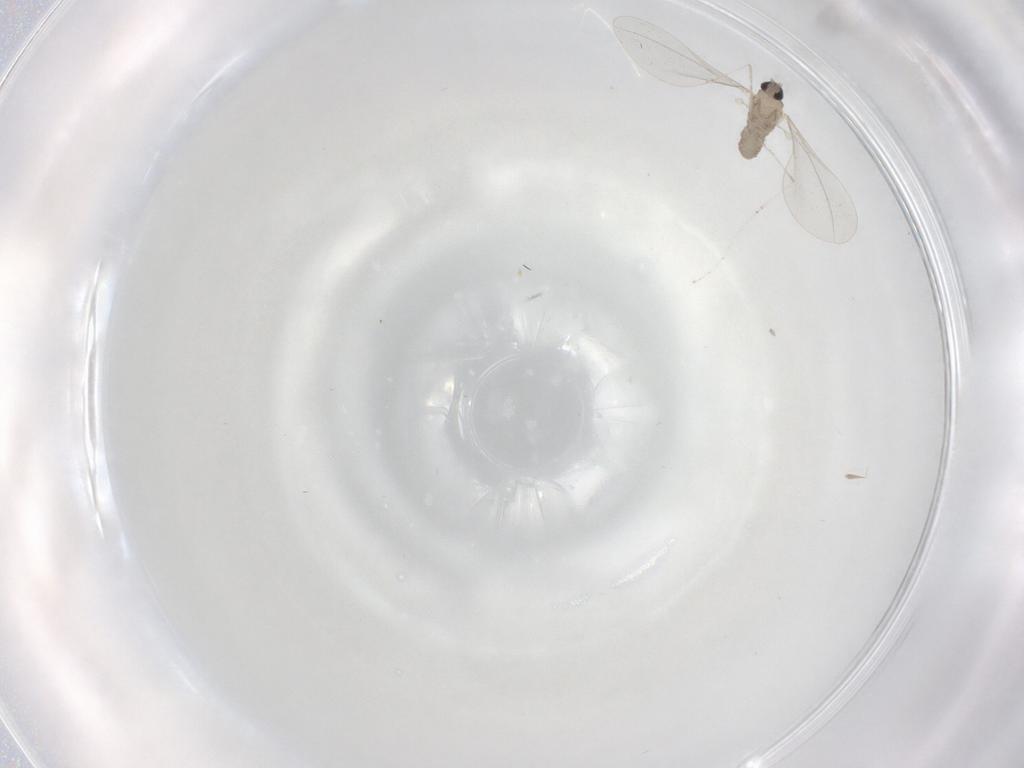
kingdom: Animalia
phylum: Arthropoda
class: Insecta
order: Diptera
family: Cecidomyiidae
